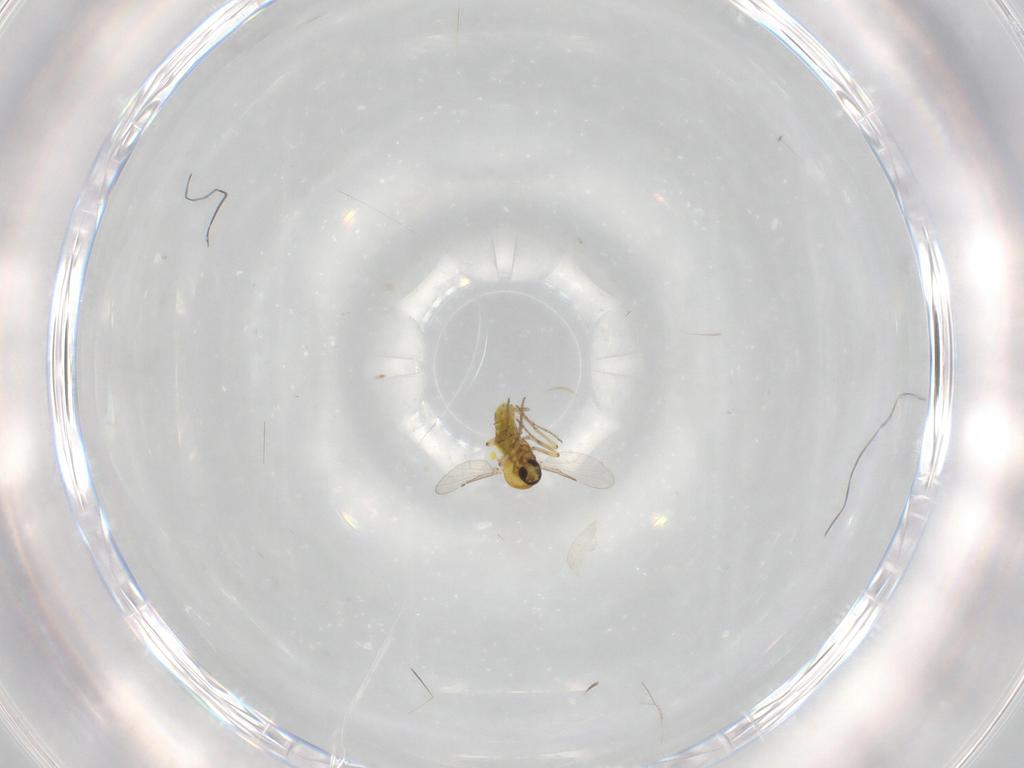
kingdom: Animalia
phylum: Arthropoda
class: Insecta
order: Diptera
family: Ceratopogonidae
